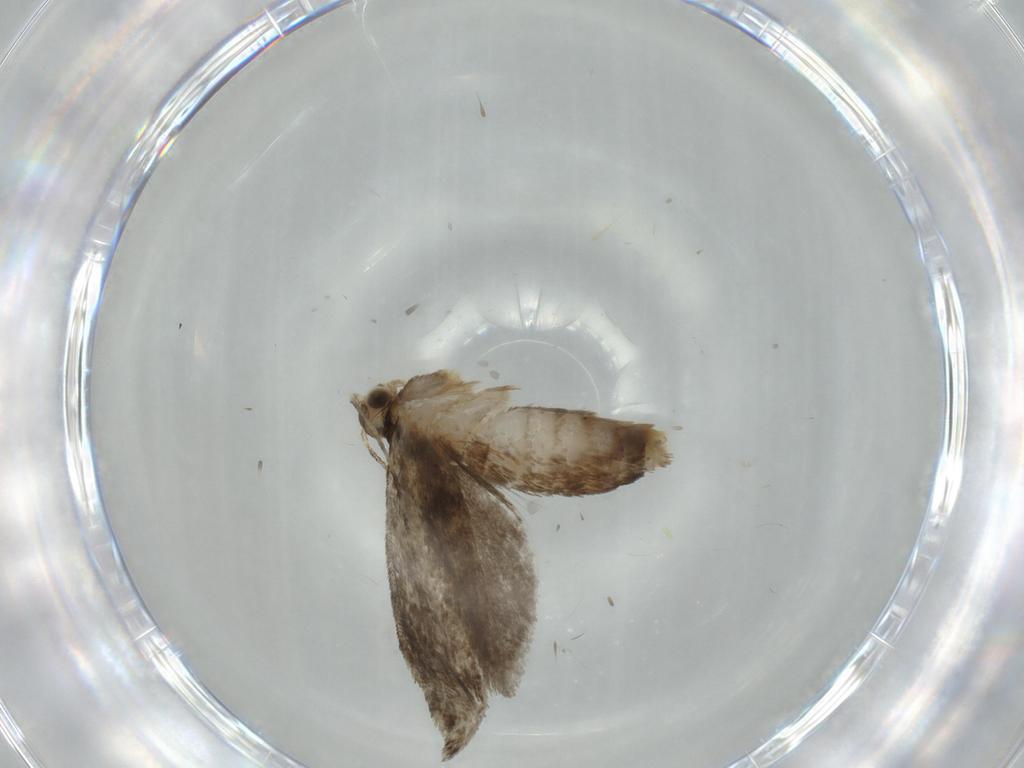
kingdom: Animalia
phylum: Arthropoda
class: Insecta
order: Lepidoptera
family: Tineidae
